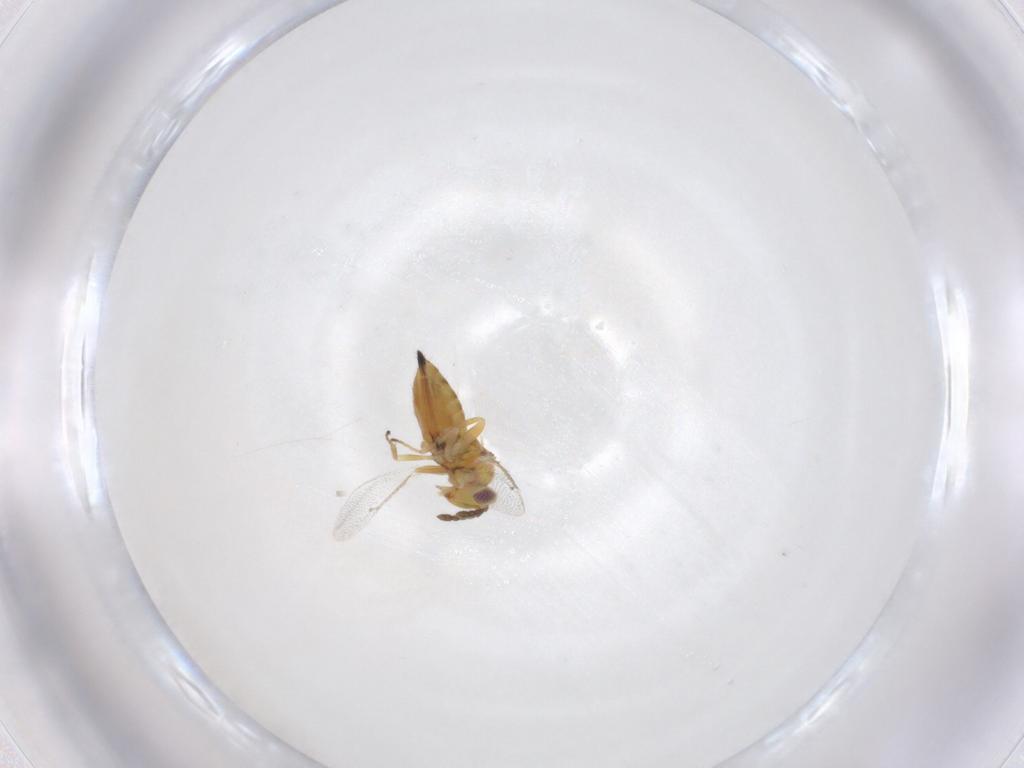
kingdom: Animalia
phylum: Arthropoda
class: Insecta
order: Hymenoptera
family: Eulophidae
